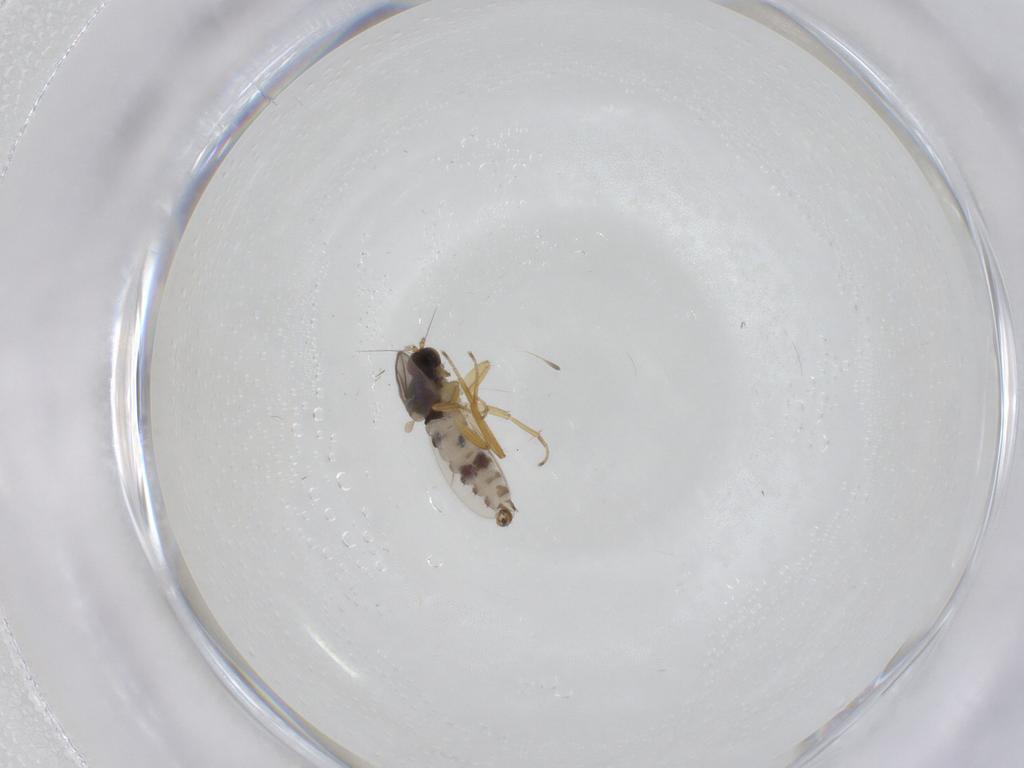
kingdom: Animalia
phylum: Arthropoda
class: Insecta
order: Diptera
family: Hybotidae
